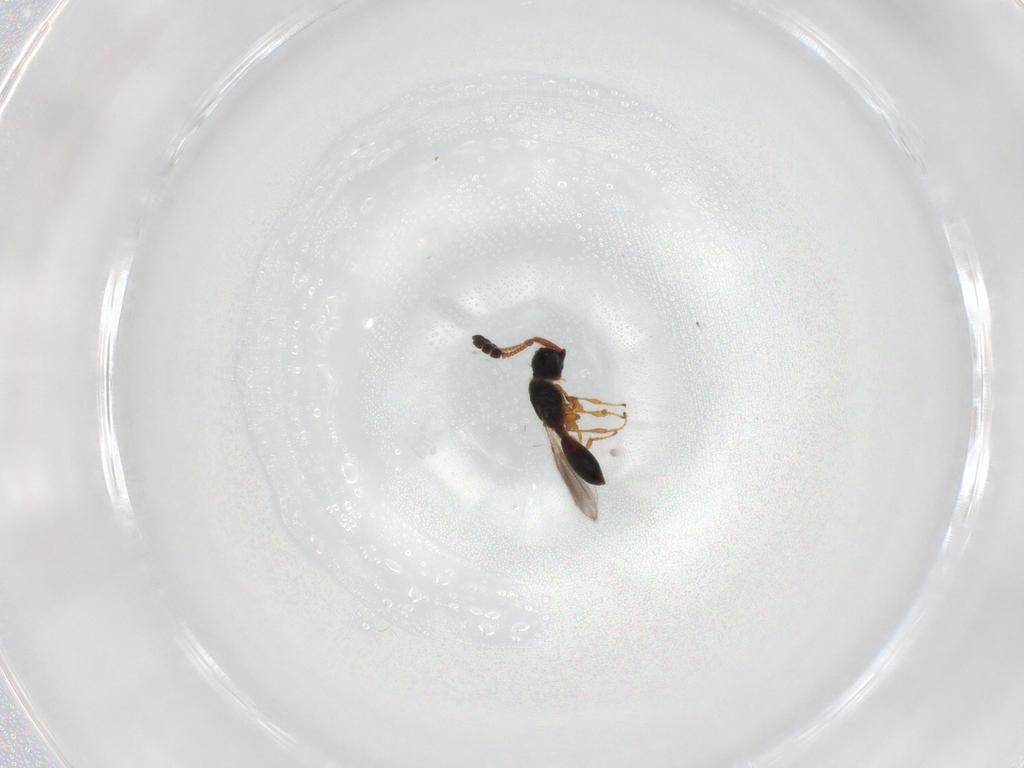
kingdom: Animalia
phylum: Arthropoda
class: Insecta
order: Hymenoptera
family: Diapriidae
